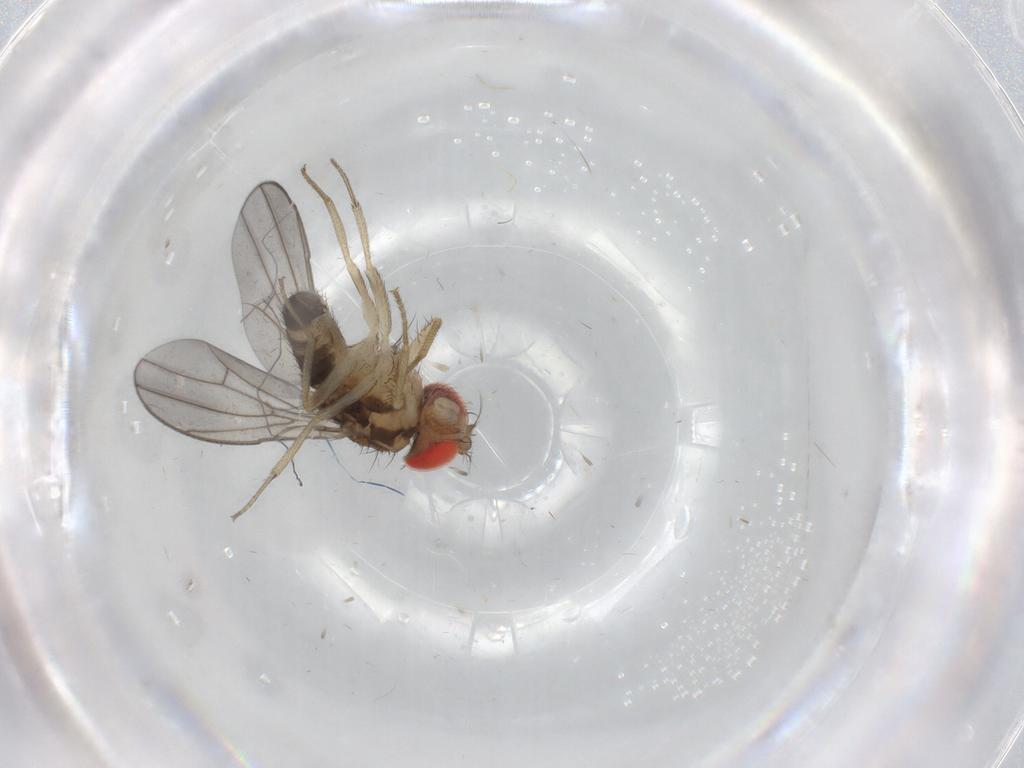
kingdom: Animalia
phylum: Arthropoda
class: Insecta
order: Diptera
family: Drosophilidae
